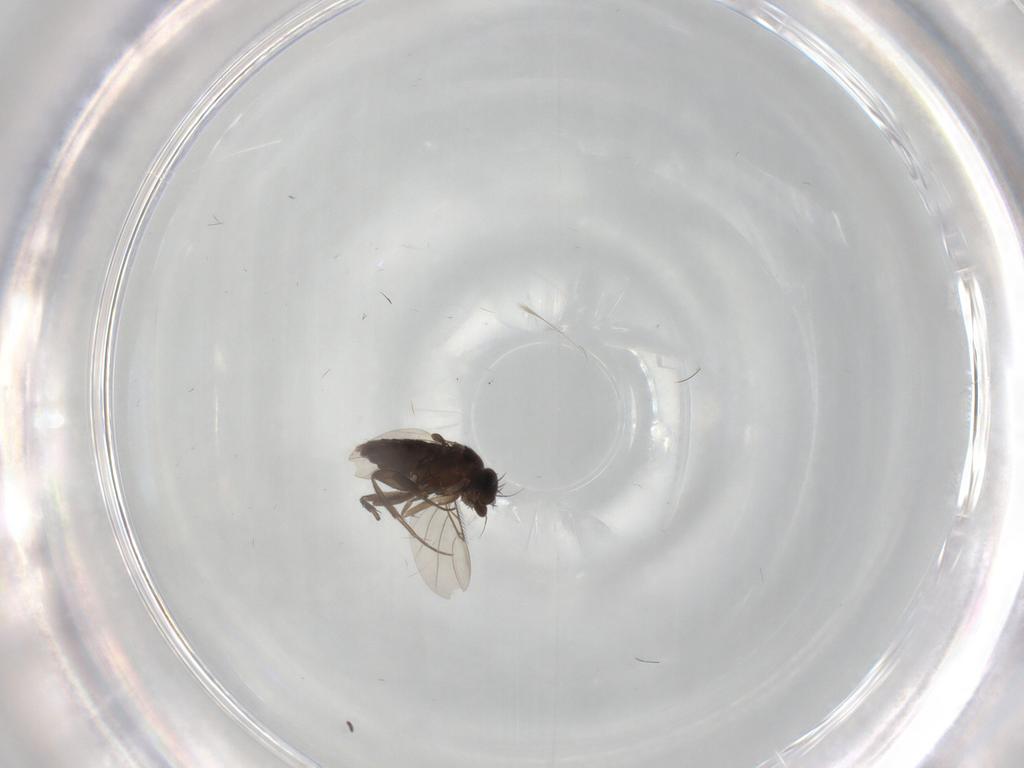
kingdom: Animalia
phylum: Arthropoda
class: Insecta
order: Diptera
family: Phoridae
